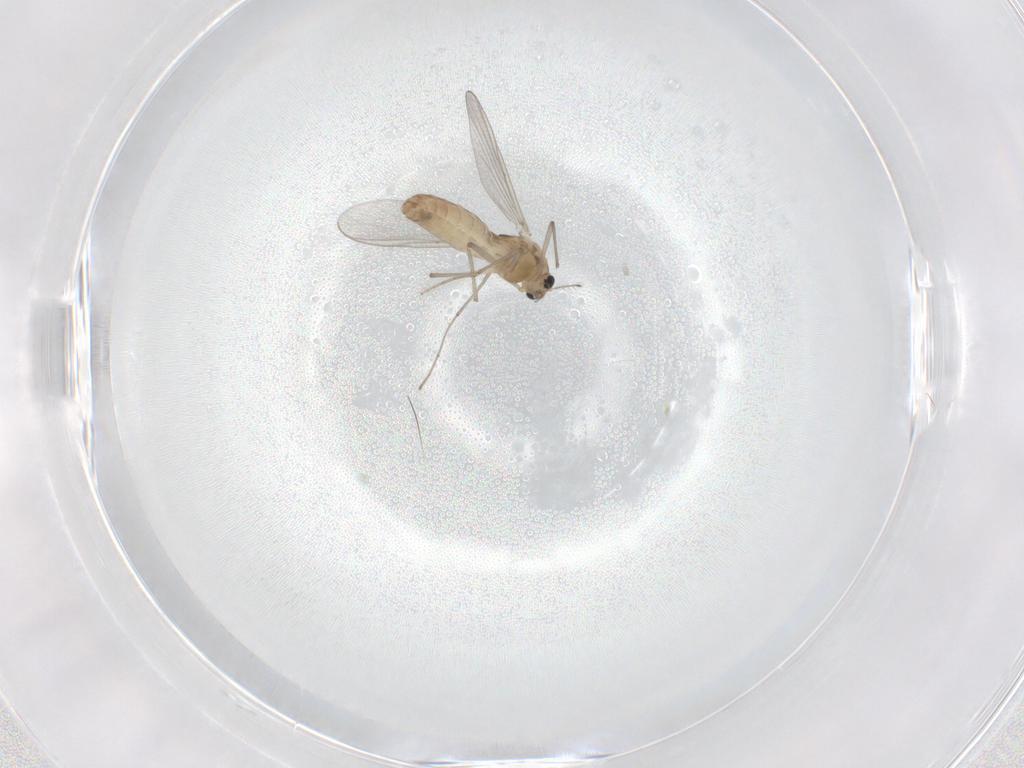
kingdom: Animalia
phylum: Arthropoda
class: Insecta
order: Diptera
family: Chironomidae
